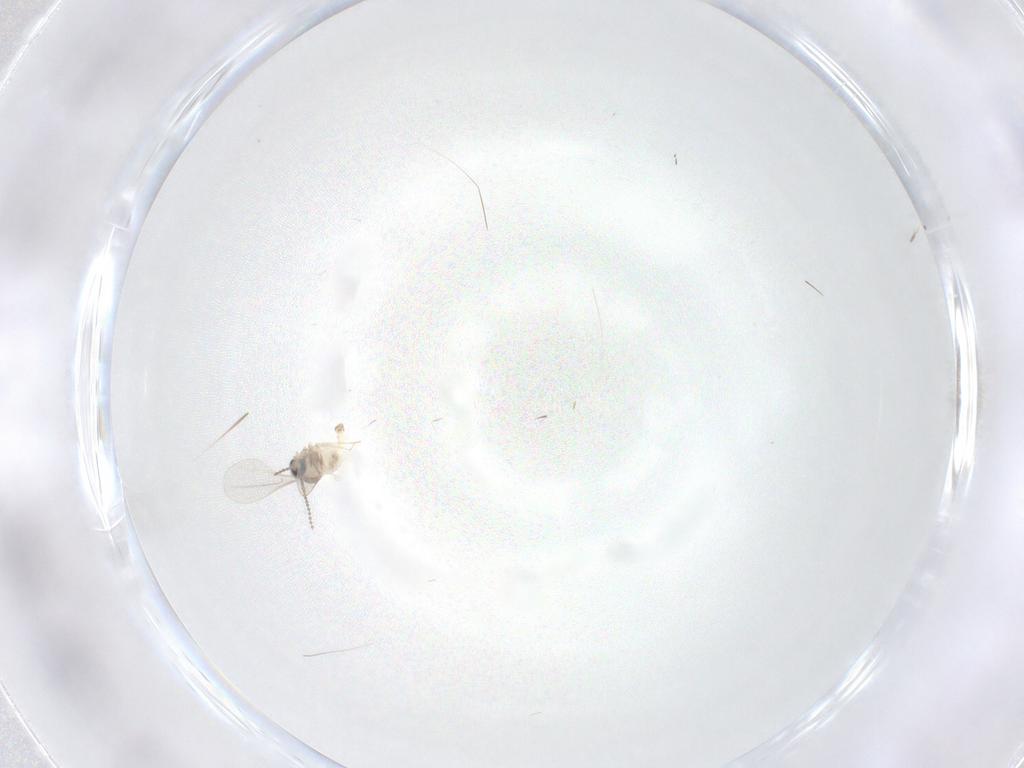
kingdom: Animalia
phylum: Arthropoda
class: Insecta
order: Diptera
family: Cecidomyiidae
